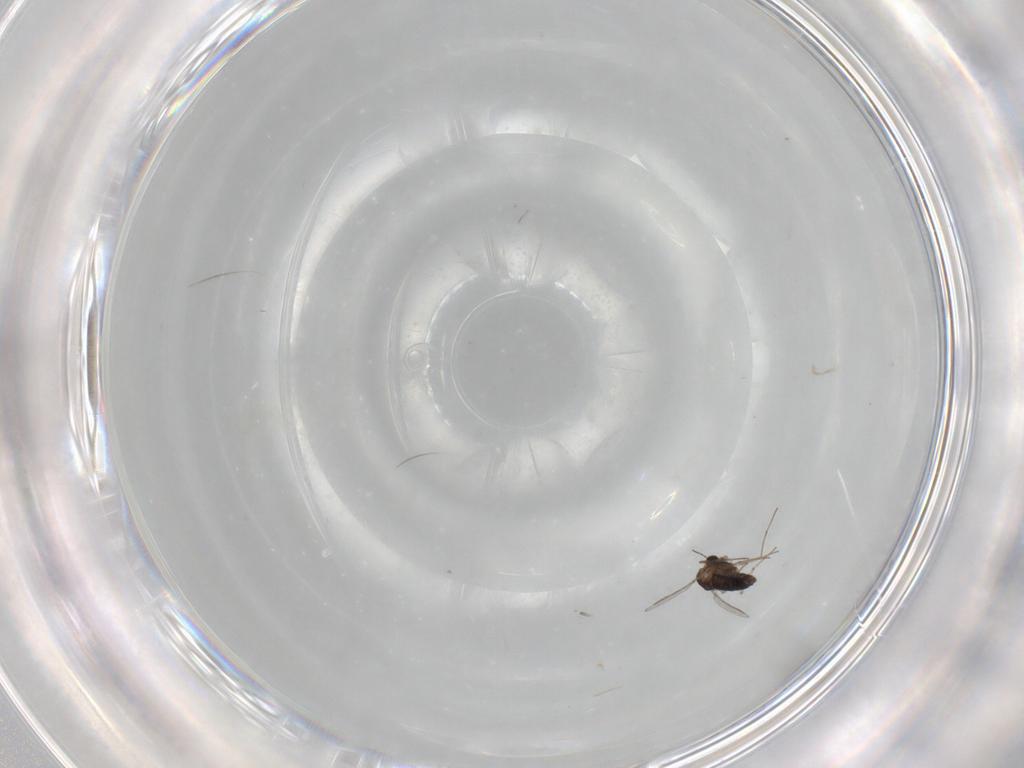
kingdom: Animalia
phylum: Arthropoda
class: Insecta
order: Diptera
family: Chironomidae
